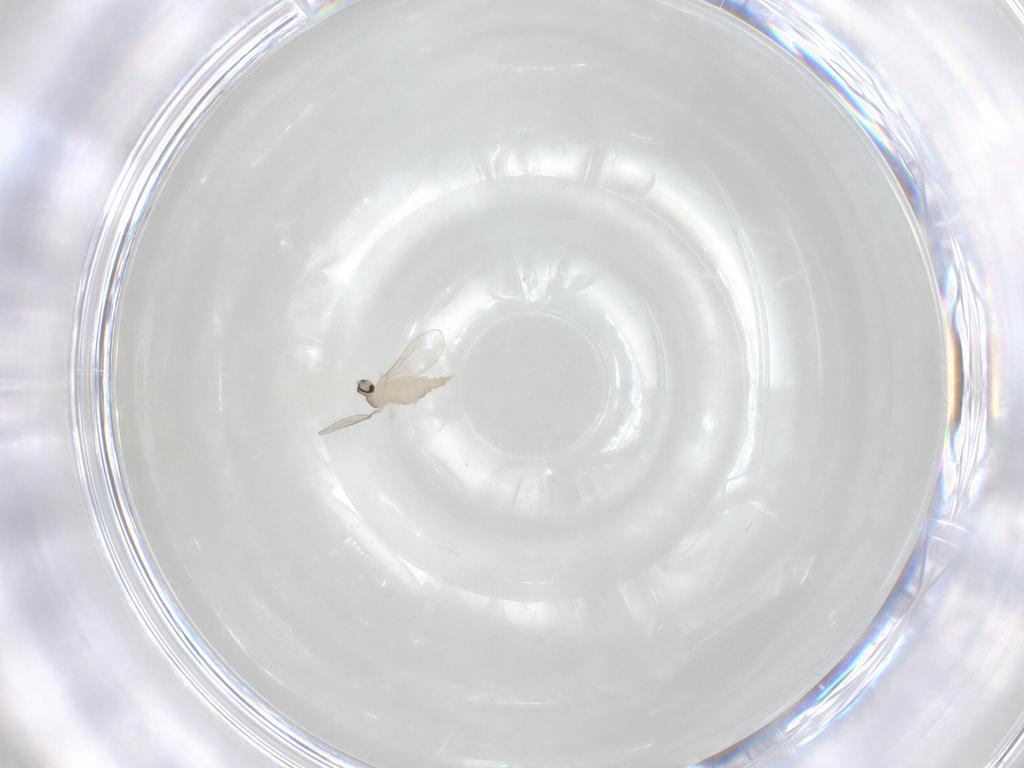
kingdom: Animalia
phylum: Arthropoda
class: Insecta
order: Diptera
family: Cecidomyiidae
